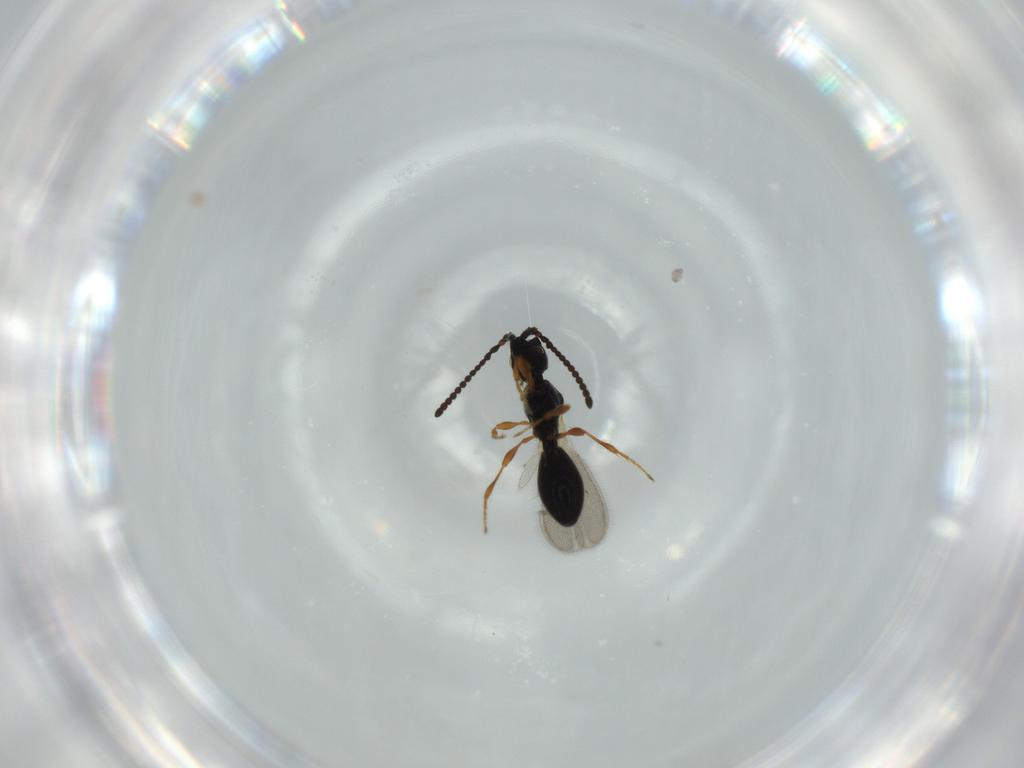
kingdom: Animalia
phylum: Arthropoda
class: Insecta
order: Hymenoptera
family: Diapriidae
